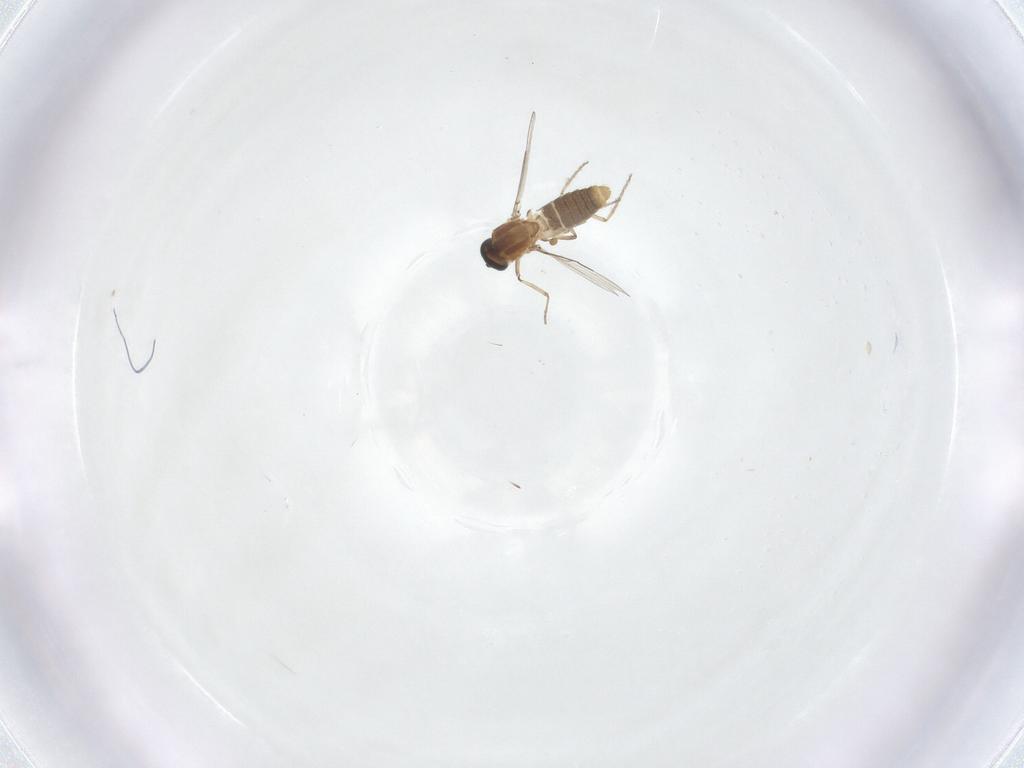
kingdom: Animalia
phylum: Arthropoda
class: Insecta
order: Diptera
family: Ceratopogonidae
